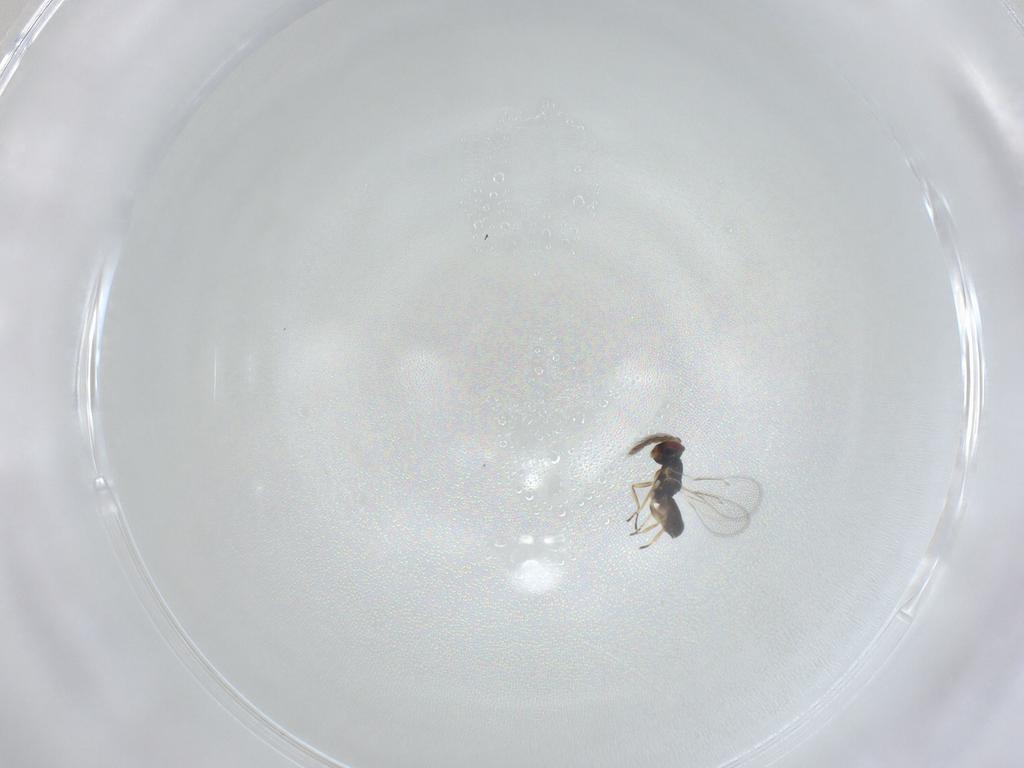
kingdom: Animalia
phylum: Arthropoda
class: Insecta
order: Hymenoptera
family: Eulophidae
